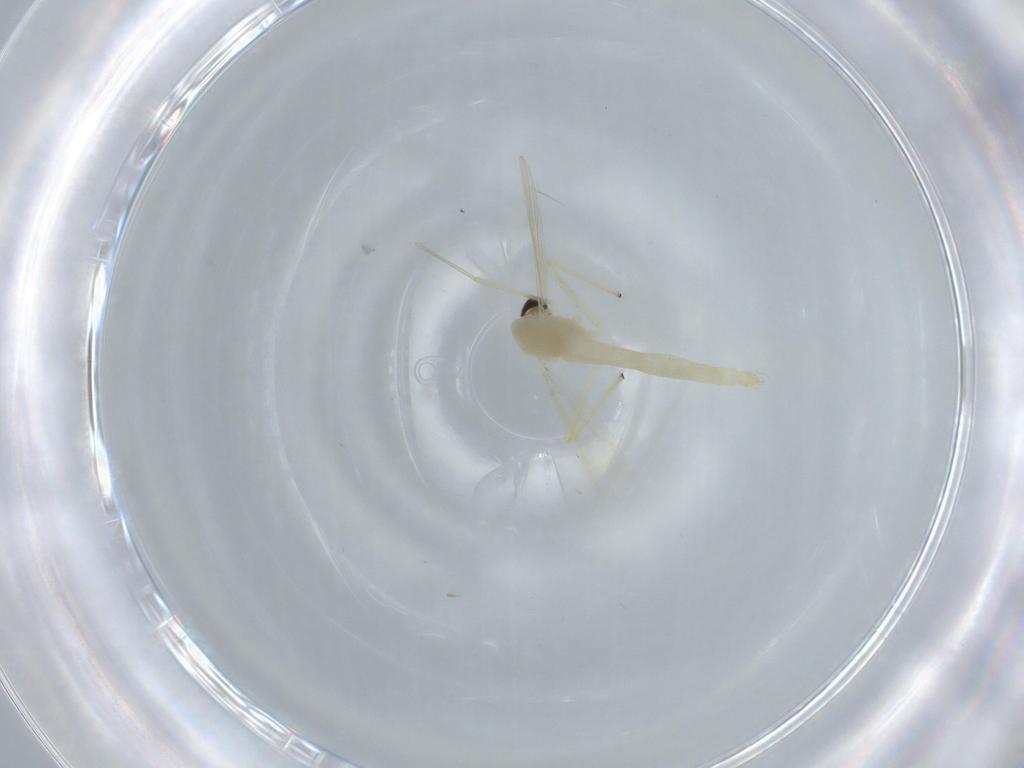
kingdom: Animalia
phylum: Arthropoda
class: Insecta
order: Diptera
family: Chironomidae
